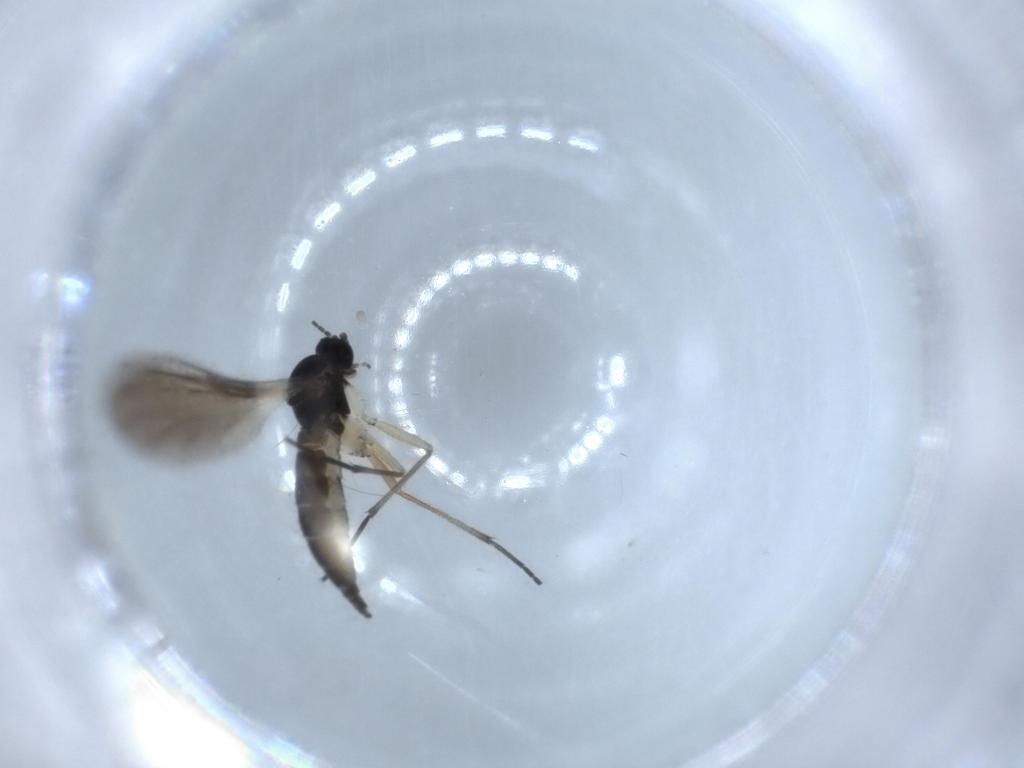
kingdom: Animalia
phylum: Arthropoda
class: Insecta
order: Diptera
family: Sciaridae
